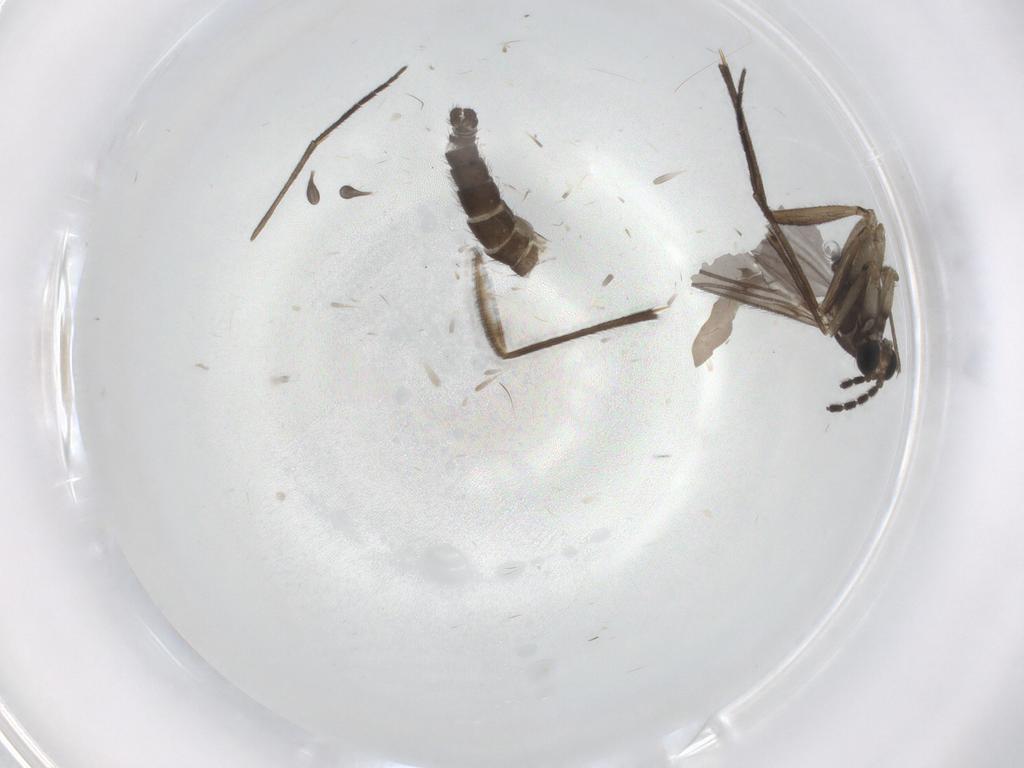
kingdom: Animalia
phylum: Arthropoda
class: Insecta
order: Diptera
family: Sciaridae
